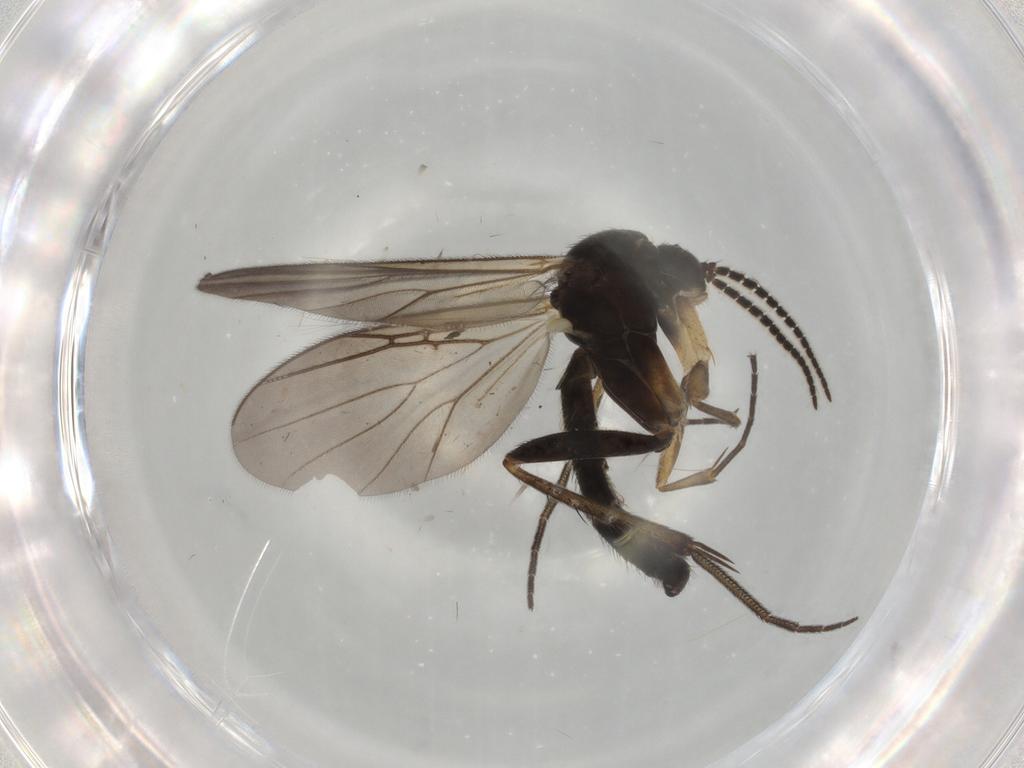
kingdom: Animalia
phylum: Arthropoda
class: Insecta
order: Diptera
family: Mycetophilidae
